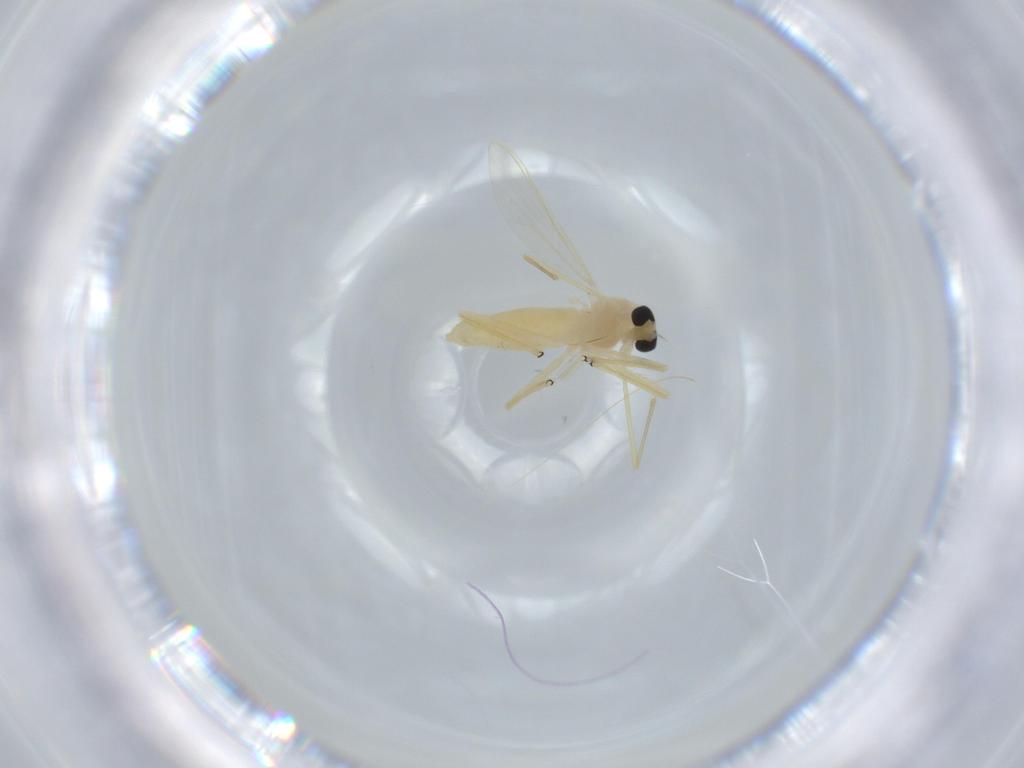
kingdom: Animalia
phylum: Arthropoda
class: Insecta
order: Diptera
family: Chironomidae
